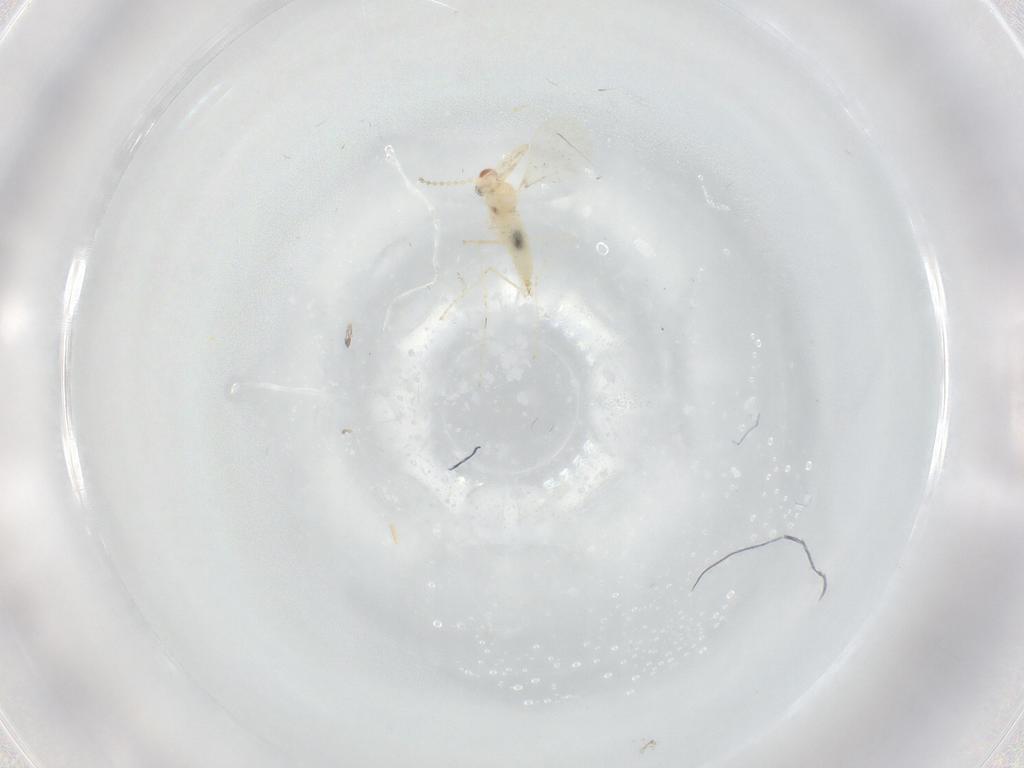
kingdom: Animalia
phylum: Arthropoda
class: Insecta
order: Diptera
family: Cecidomyiidae
